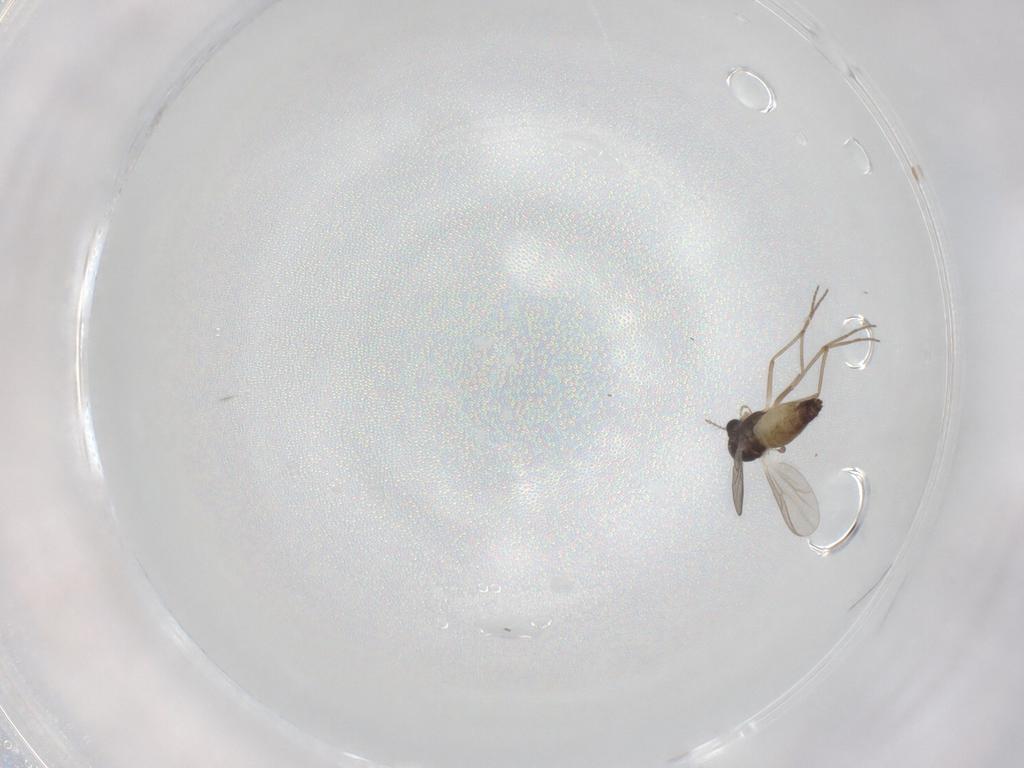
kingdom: Animalia
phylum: Arthropoda
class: Insecta
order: Diptera
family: Chironomidae
